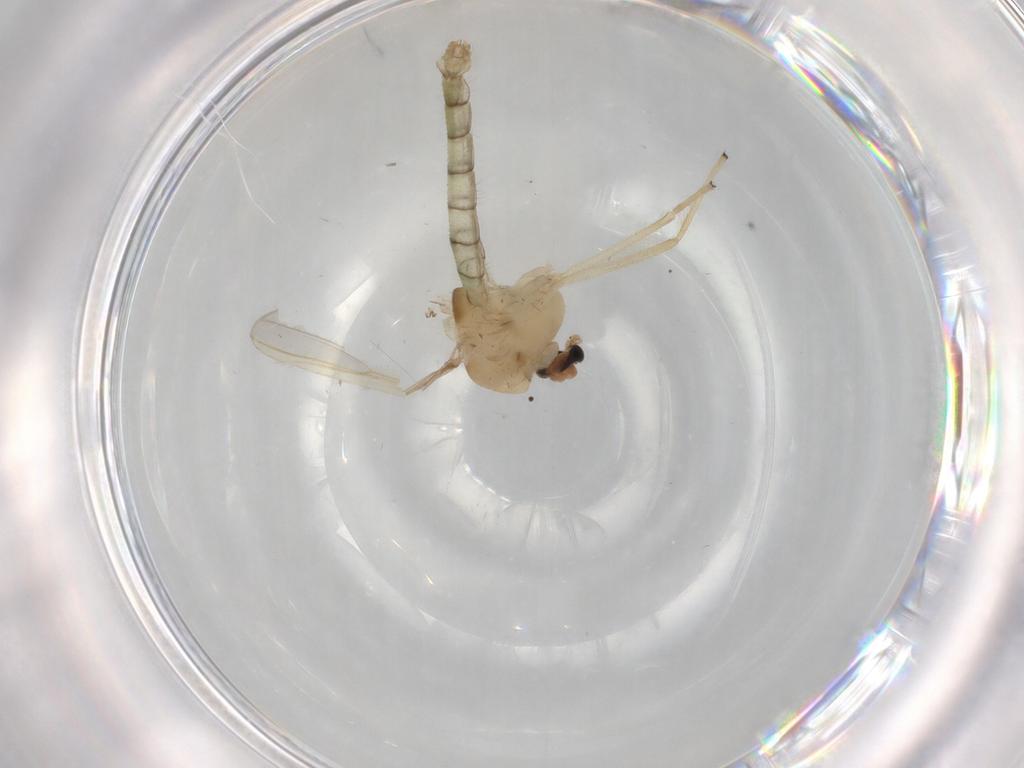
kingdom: Animalia
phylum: Arthropoda
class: Insecta
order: Diptera
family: Chironomidae
